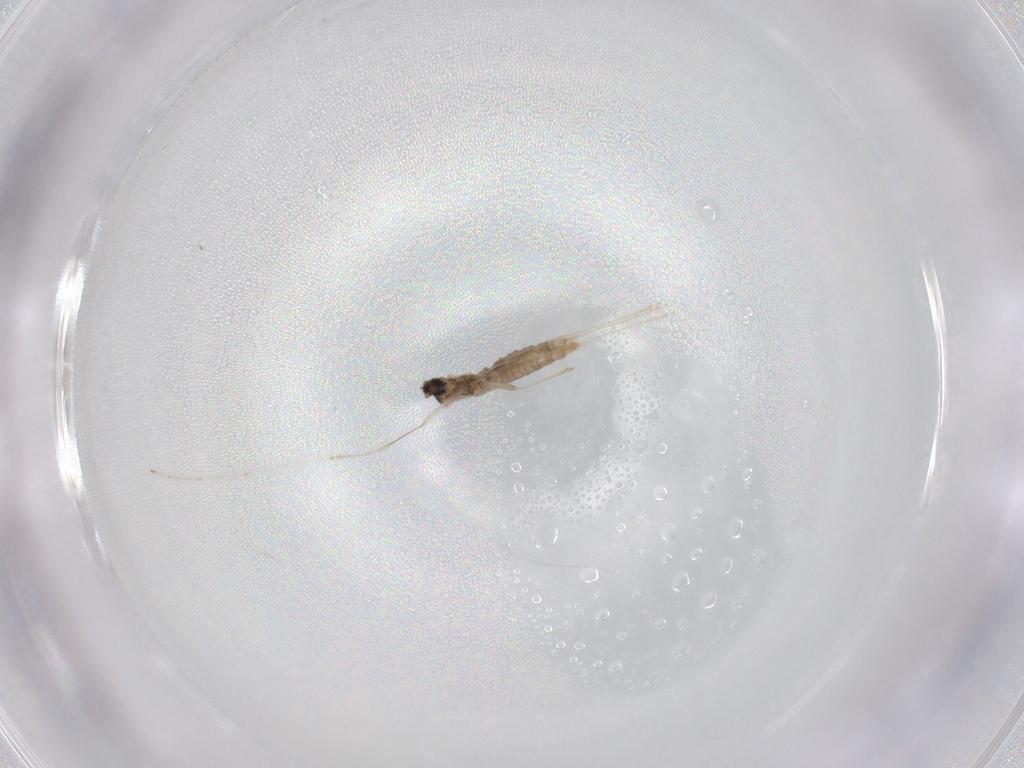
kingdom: Animalia
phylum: Arthropoda
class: Insecta
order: Diptera
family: Cecidomyiidae
